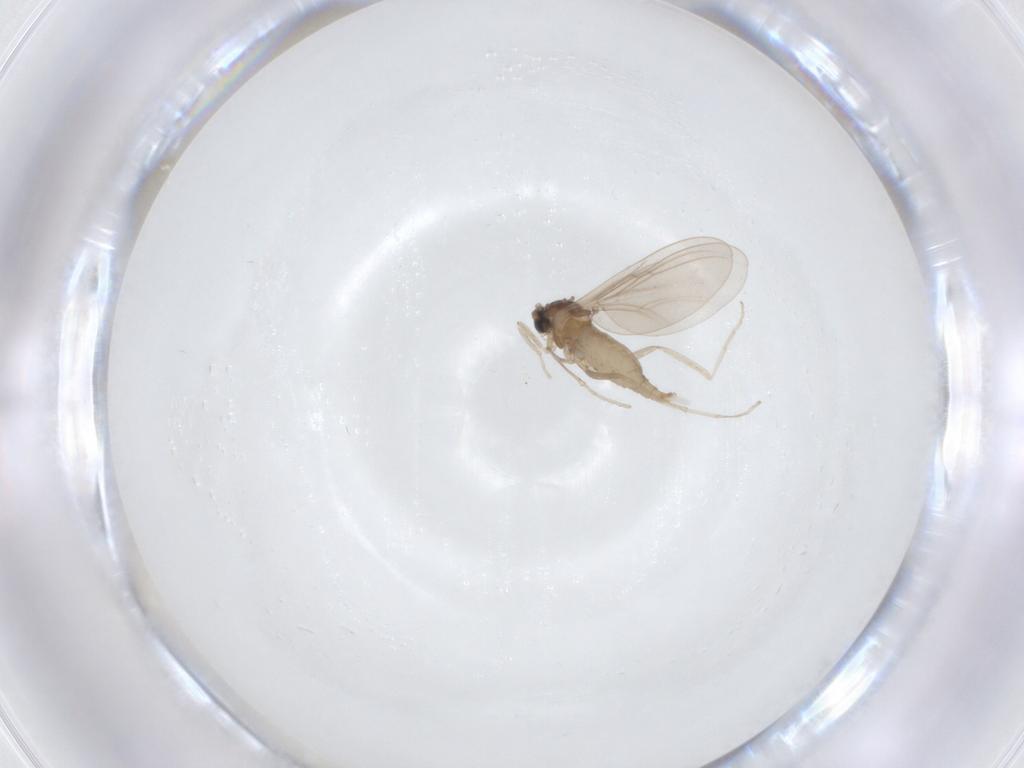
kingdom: Animalia
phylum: Arthropoda
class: Insecta
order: Diptera
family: Cecidomyiidae
